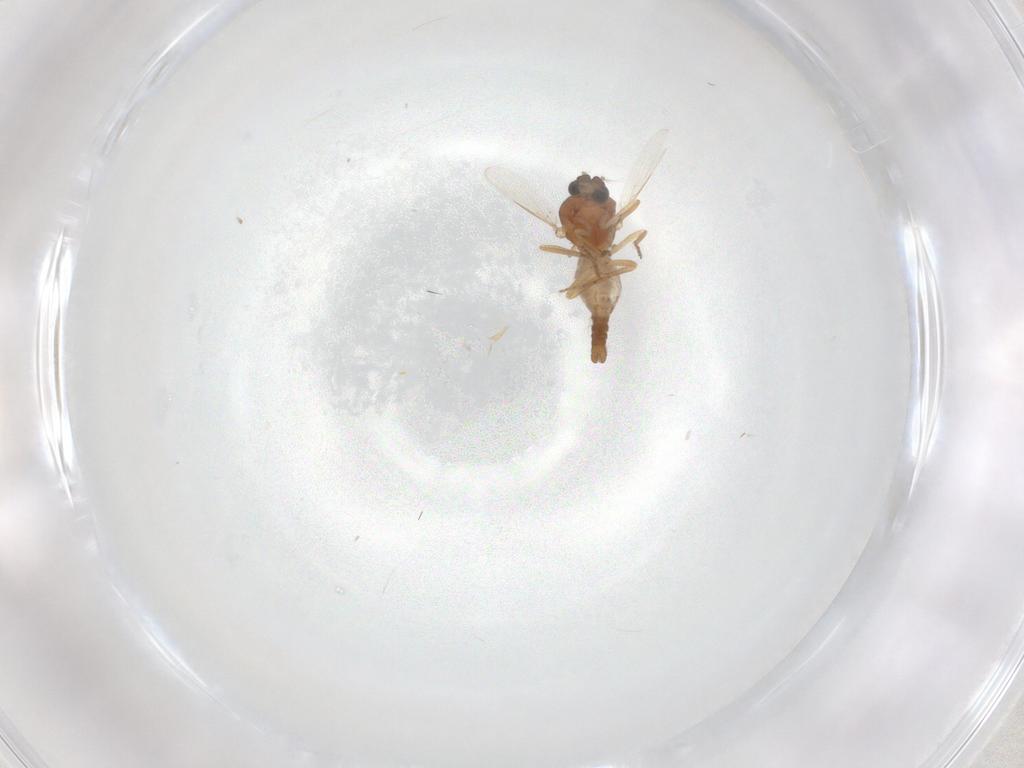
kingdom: Animalia
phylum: Arthropoda
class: Insecta
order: Diptera
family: Ceratopogonidae
